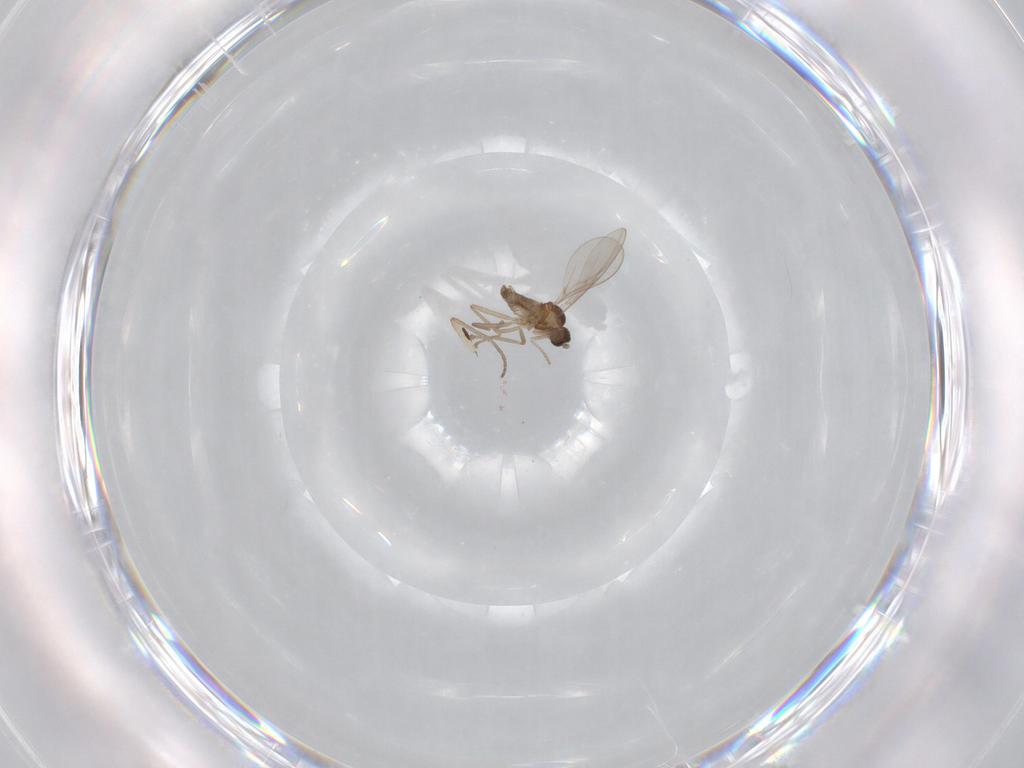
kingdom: Animalia
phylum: Arthropoda
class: Insecta
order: Diptera
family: Cecidomyiidae
